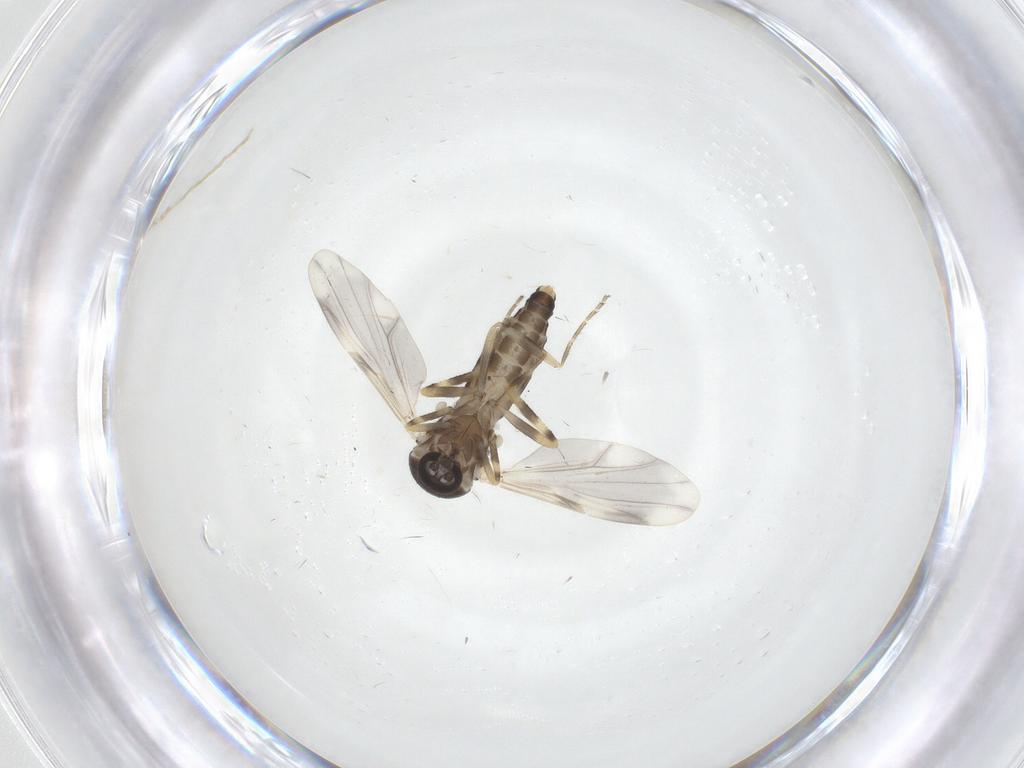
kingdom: Animalia
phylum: Arthropoda
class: Insecta
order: Diptera
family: Ceratopogonidae
